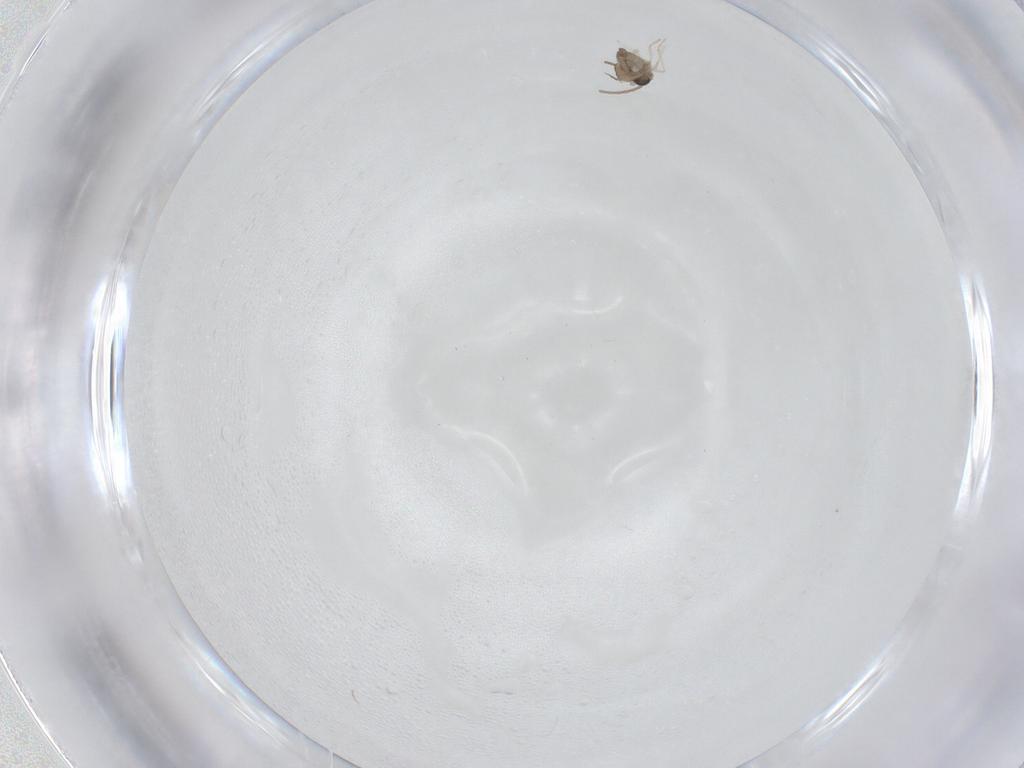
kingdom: Animalia
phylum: Arthropoda
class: Insecta
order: Diptera
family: Cecidomyiidae
